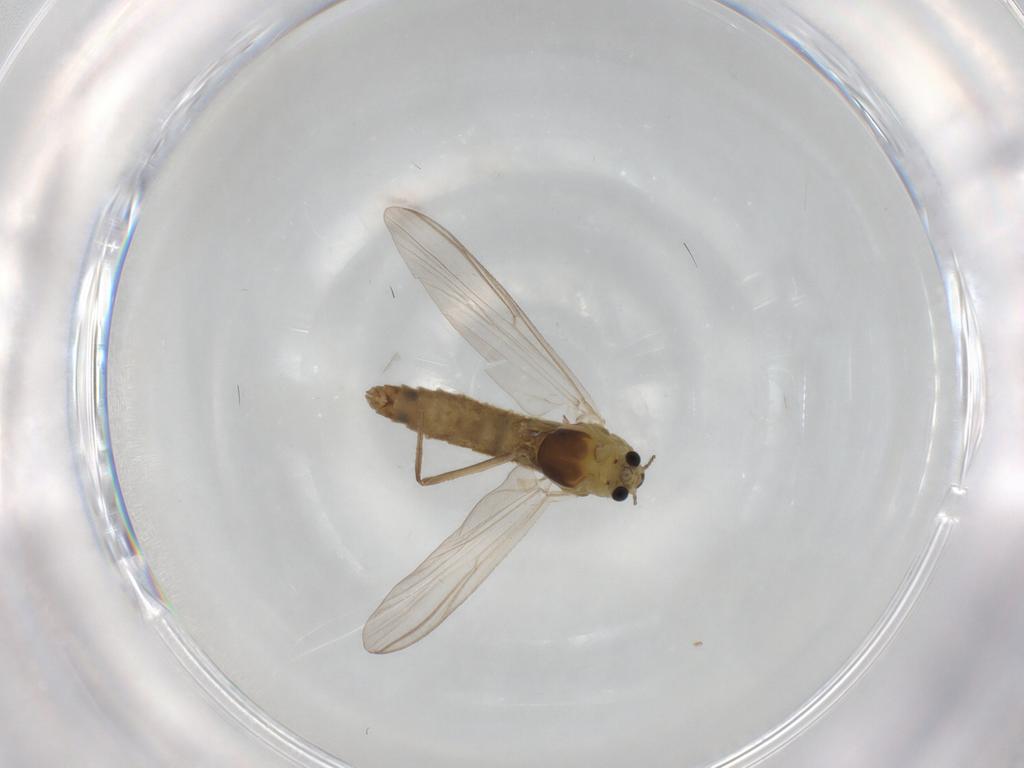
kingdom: Animalia
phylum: Arthropoda
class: Insecta
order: Diptera
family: Chironomidae
